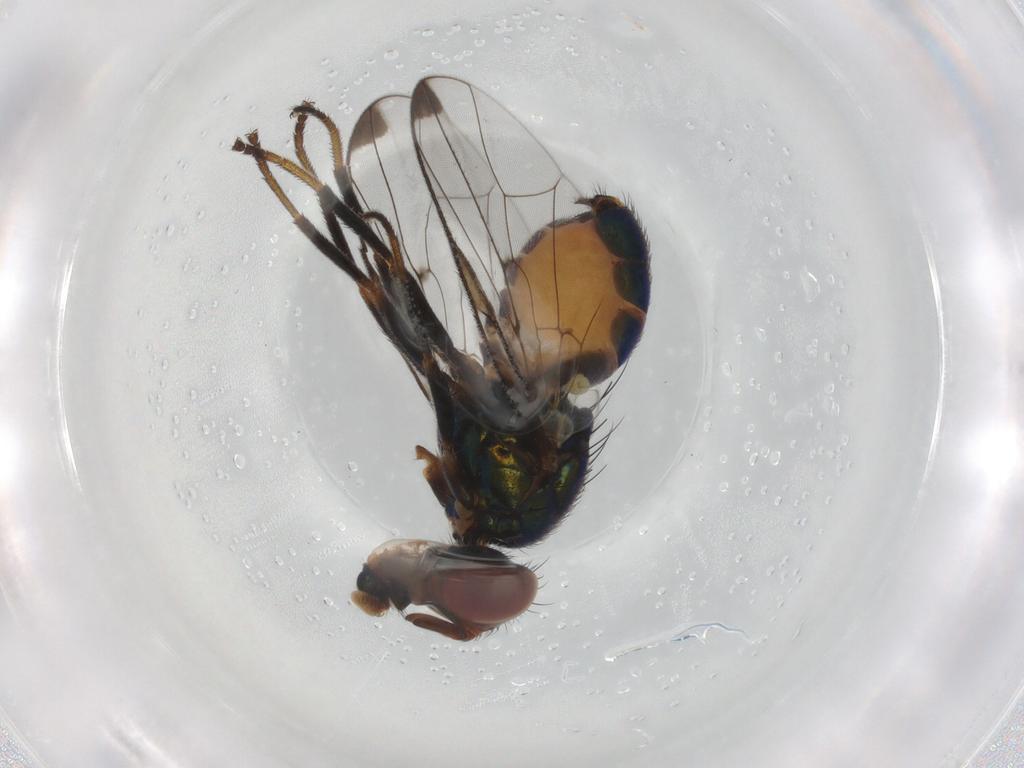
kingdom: Animalia
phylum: Arthropoda
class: Insecta
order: Diptera
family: Platystomatidae
